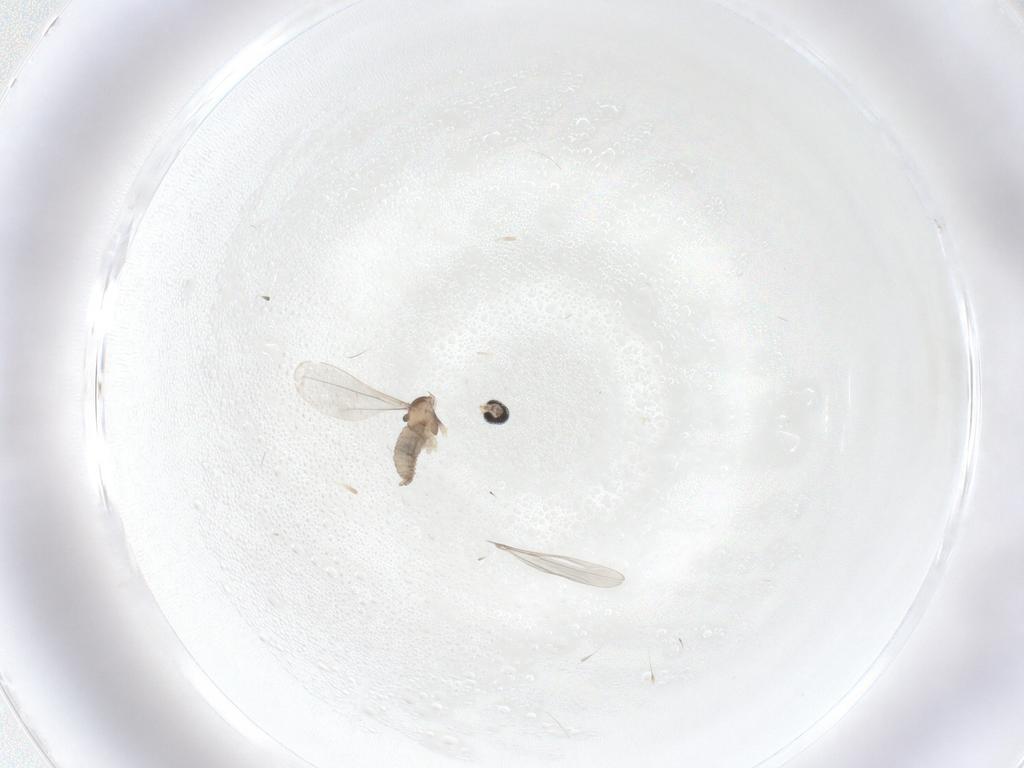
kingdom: Animalia
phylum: Arthropoda
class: Insecta
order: Diptera
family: Cecidomyiidae
